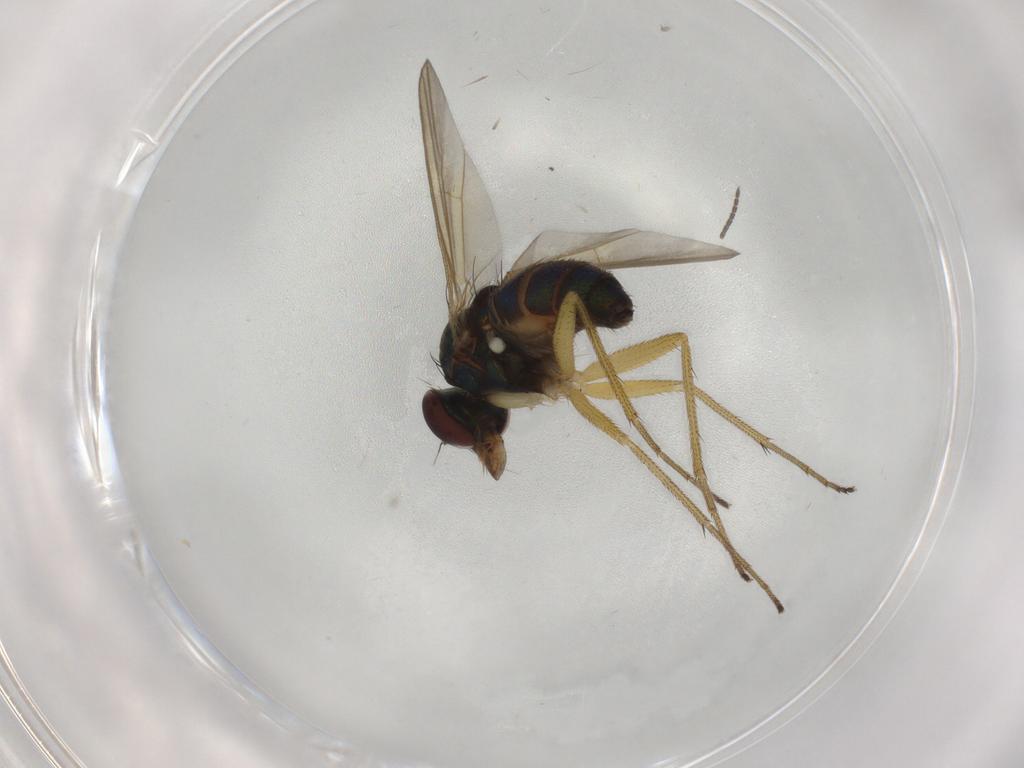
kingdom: Animalia
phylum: Arthropoda
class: Insecta
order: Diptera
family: Dolichopodidae
